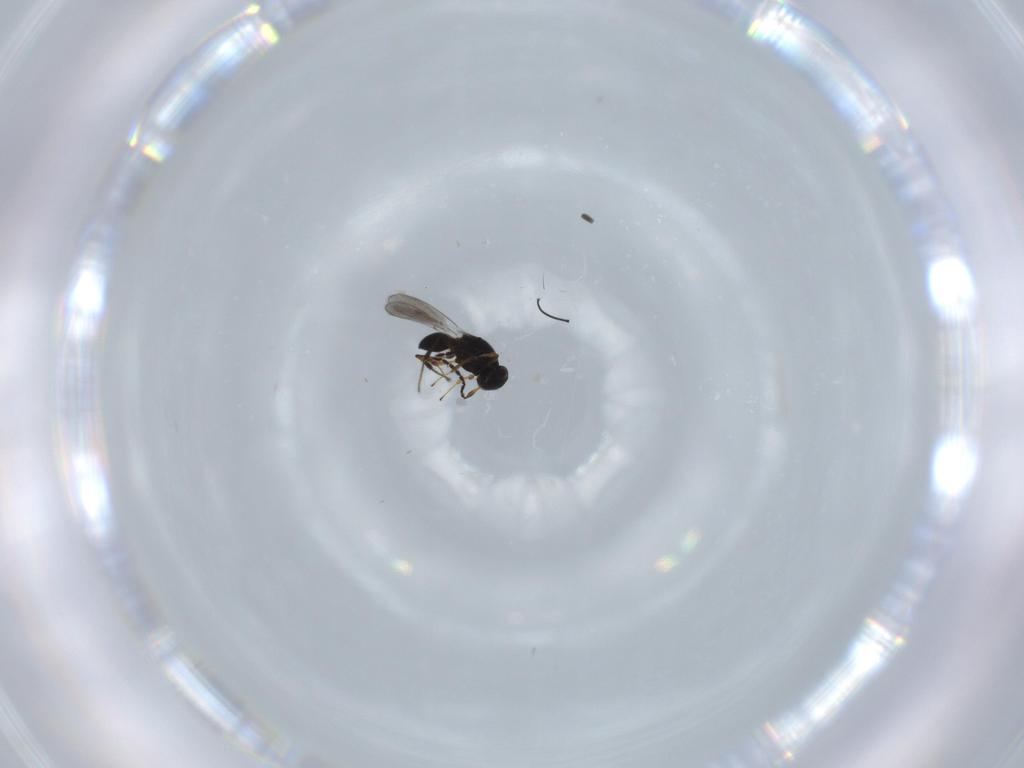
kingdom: Animalia
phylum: Arthropoda
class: Insecta
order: Hymenoptera
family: Platygastridae
